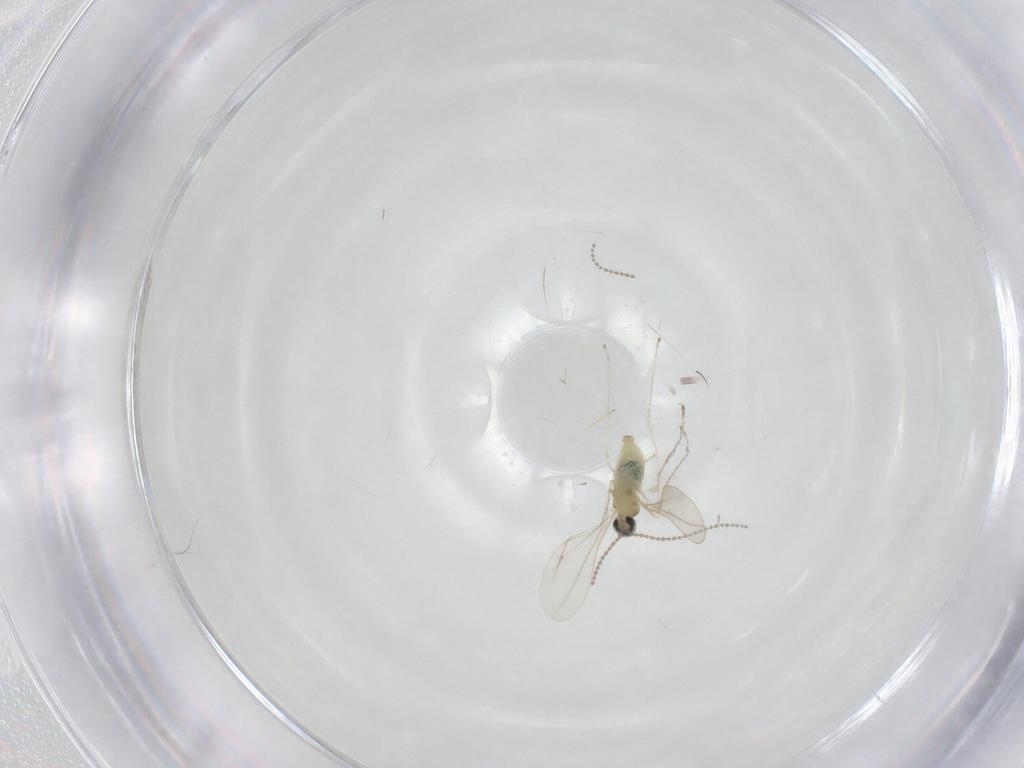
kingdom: Animalia
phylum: Arthropoda
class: Insecta
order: Diptera
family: Cecidomyiidae
